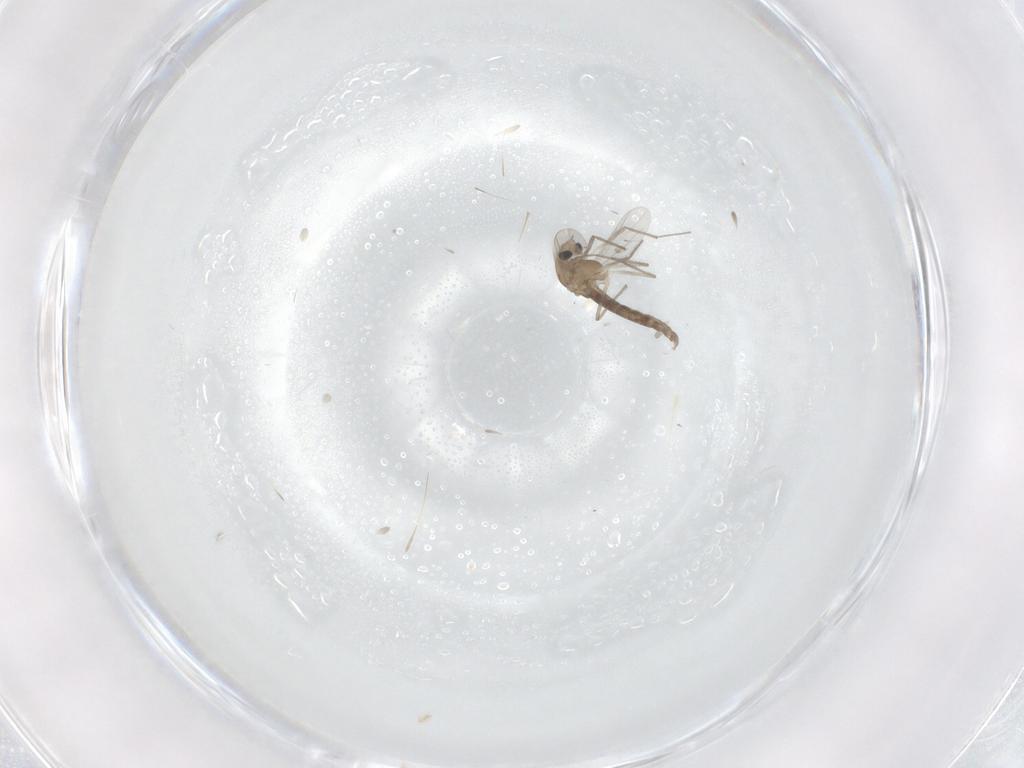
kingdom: Animalia
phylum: Arthropoda
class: Insecta
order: Diptera
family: Chironomidae
